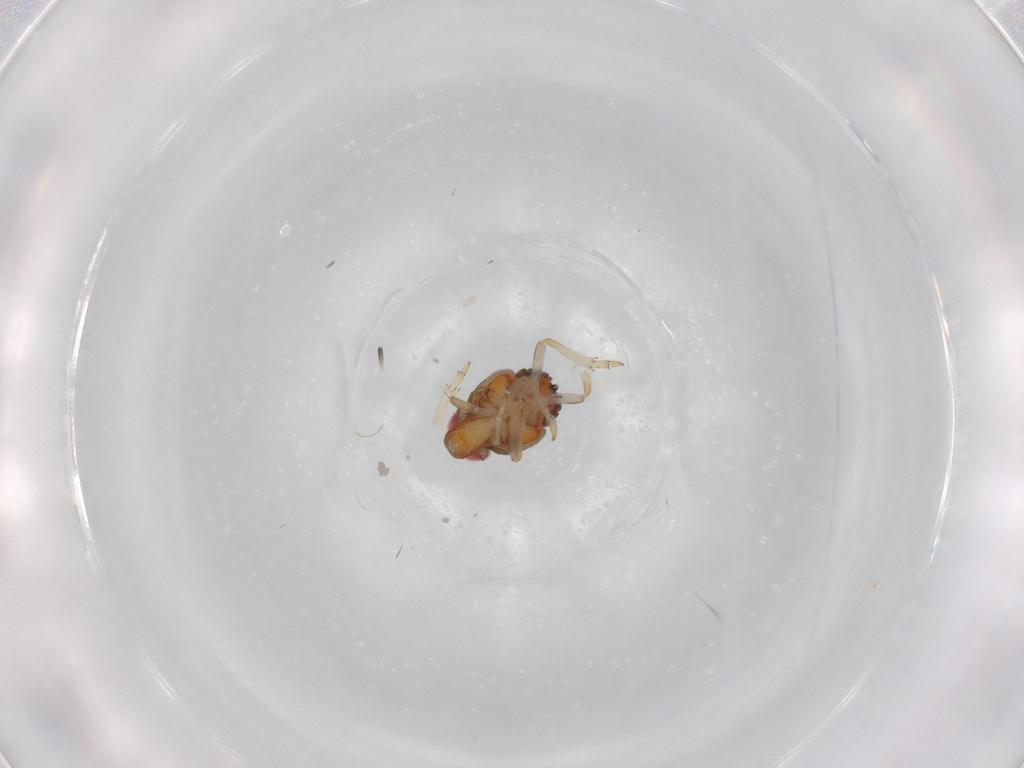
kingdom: Animalia
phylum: Arthropoda
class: Insecta
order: Hemiptera
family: Issidae
